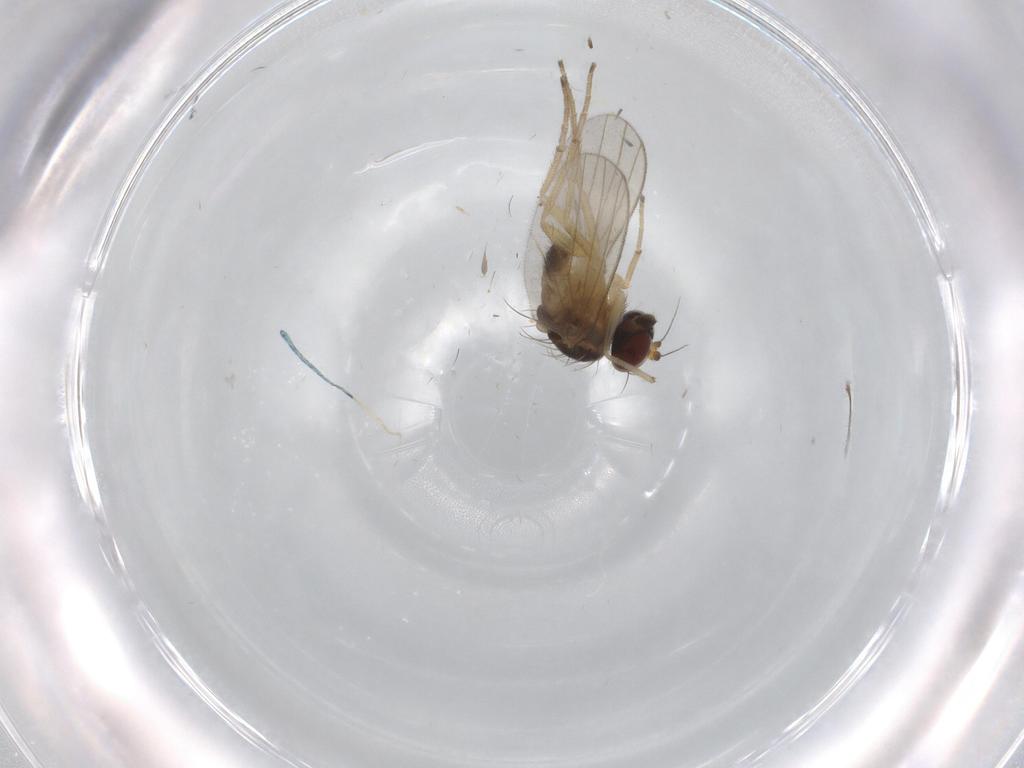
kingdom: Animalia
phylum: Arthropoda
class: Insecta
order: Diptera
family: Dolichopodidae
